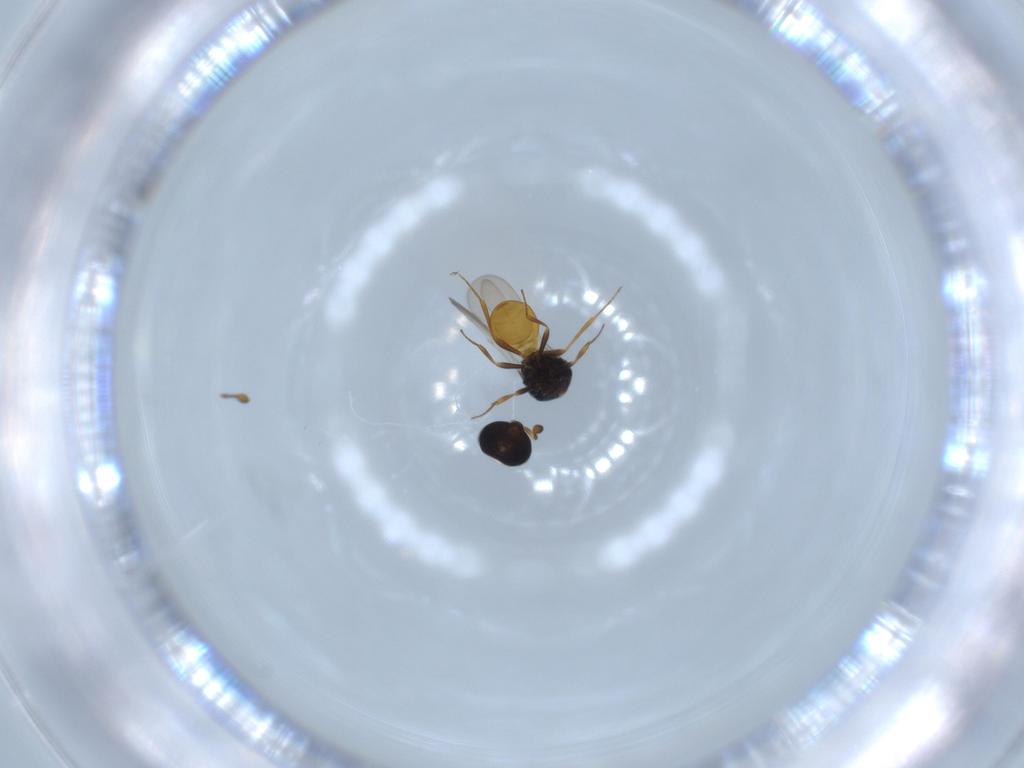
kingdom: Animalia
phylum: Arthropoda
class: Insecta
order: Hymenoptera
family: Scelionidae
